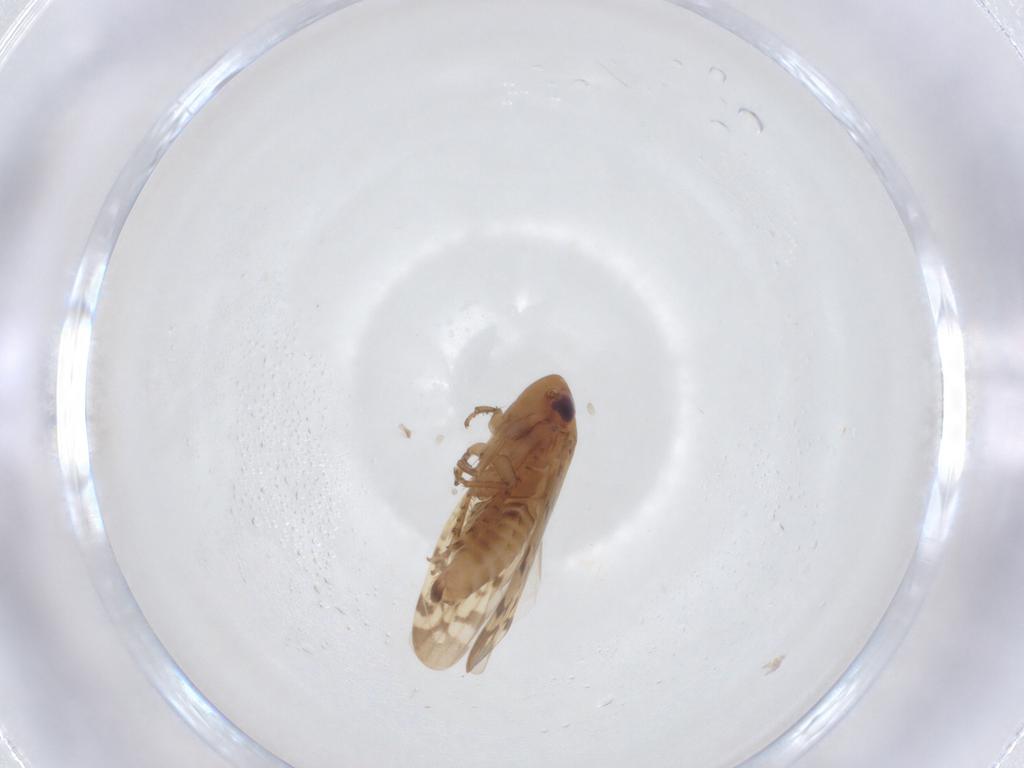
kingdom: Animalia
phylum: Arthropoda
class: Insecta
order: Hemiptera
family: Cicadellidae
